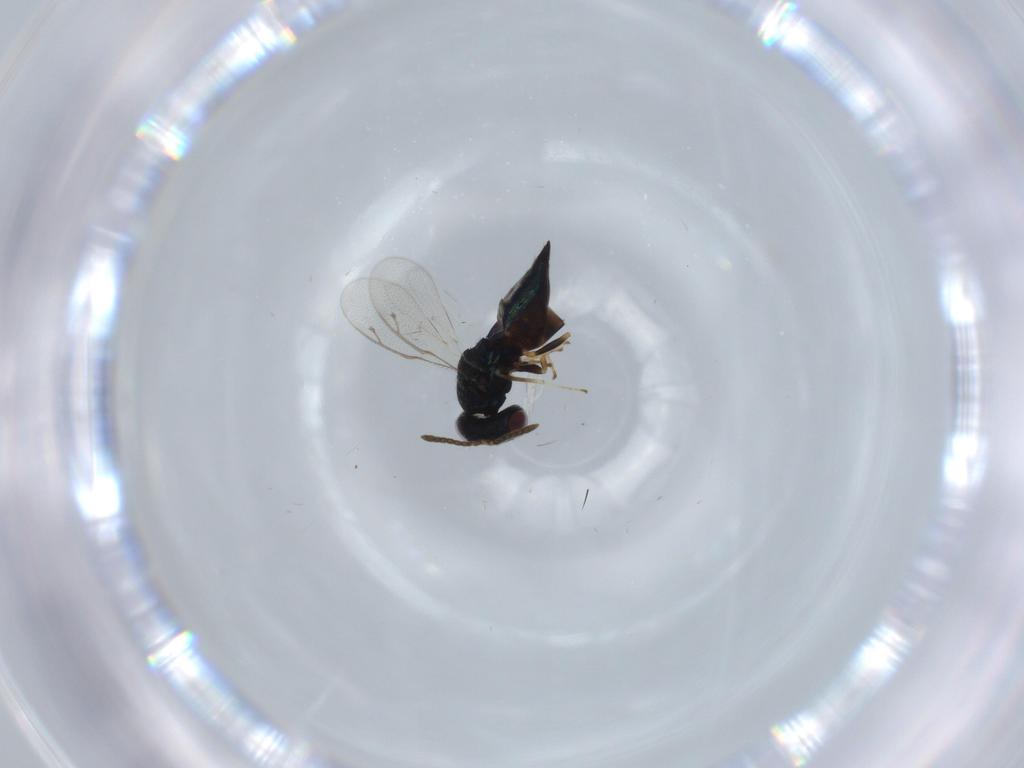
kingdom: Animalia
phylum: Arthropoda
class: Insecta
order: Hymenoptera
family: Pteromalidae
